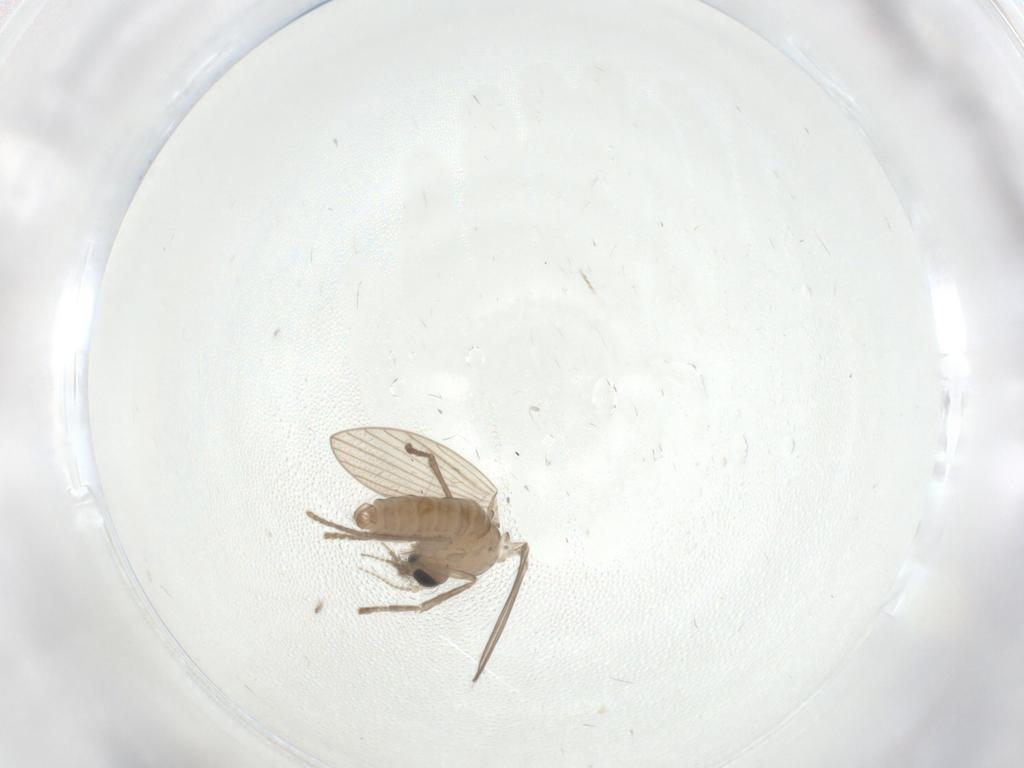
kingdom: Animalia
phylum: Arthropoda
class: Insecta
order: Diptera
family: Psychodidae
